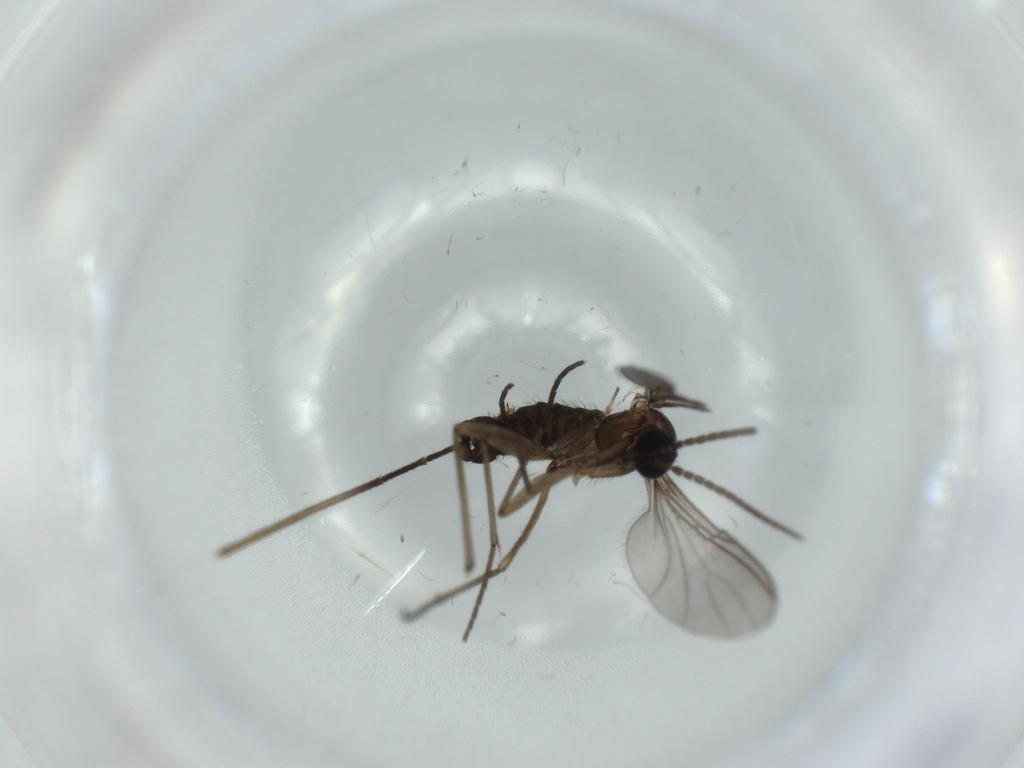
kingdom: Animalia
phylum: Arthropoda
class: Insecta
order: Diptera
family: Sciaridae
